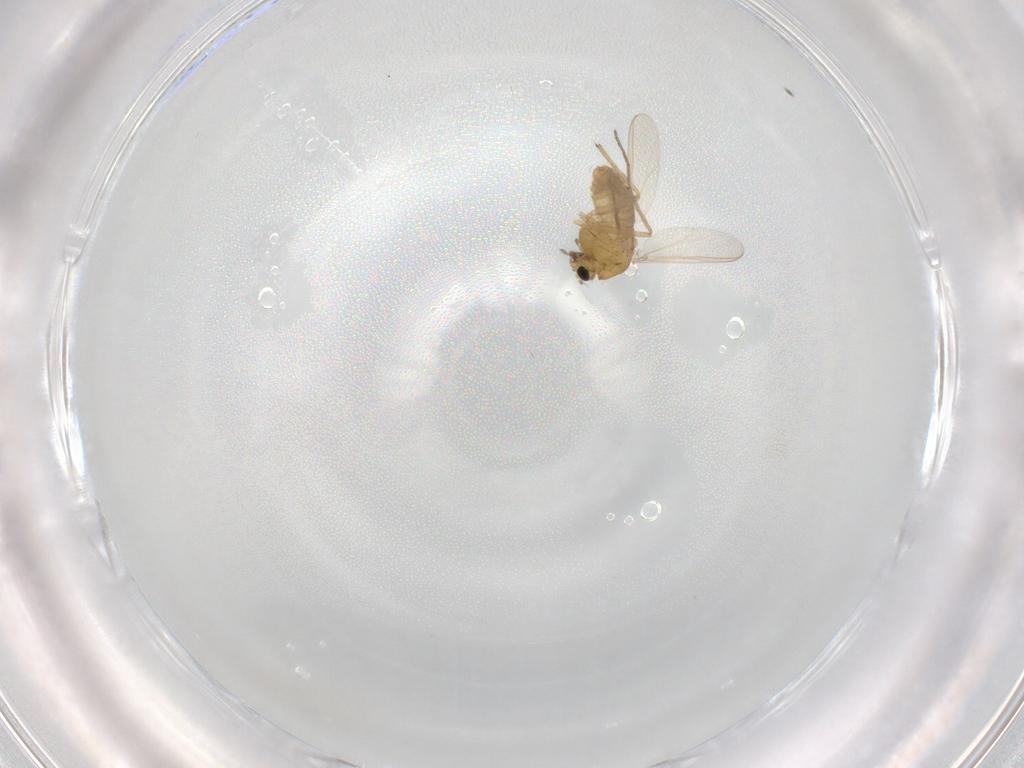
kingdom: Animalia
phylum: Arthropoda
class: Insecta
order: Diptera
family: Chironomidae
